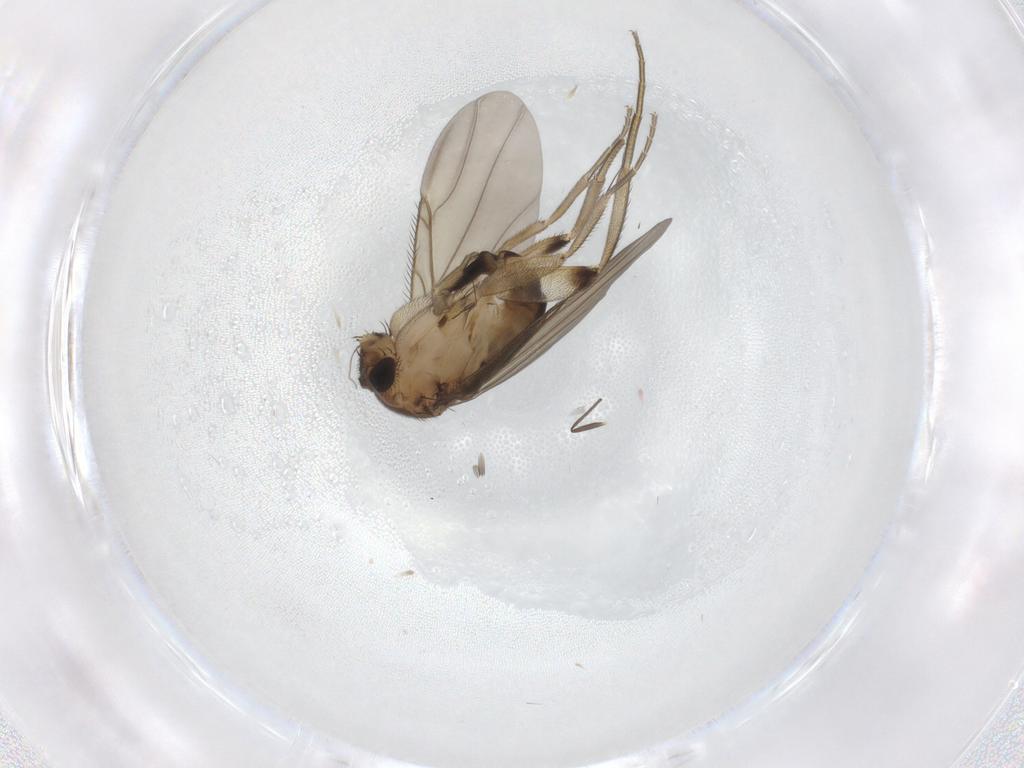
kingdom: Animalia
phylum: Arthropoda
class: Insecta
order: Diptera
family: Phoridae
